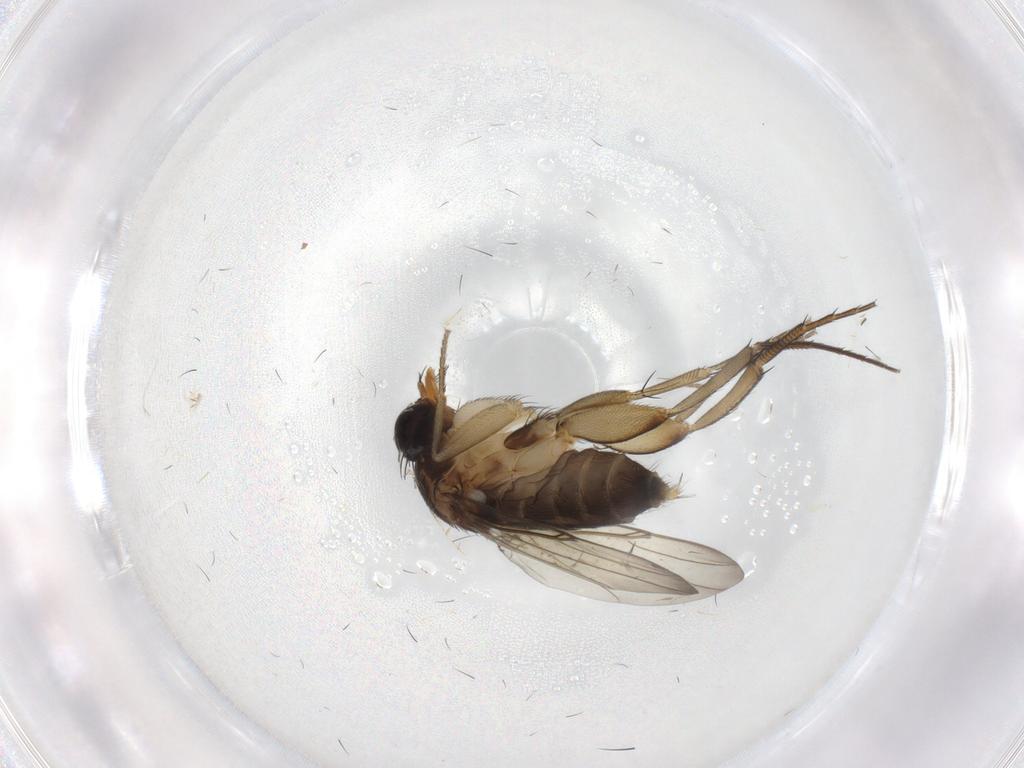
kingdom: Animalia
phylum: Arthropoda
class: Insecta
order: Diptera
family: Phoridae
